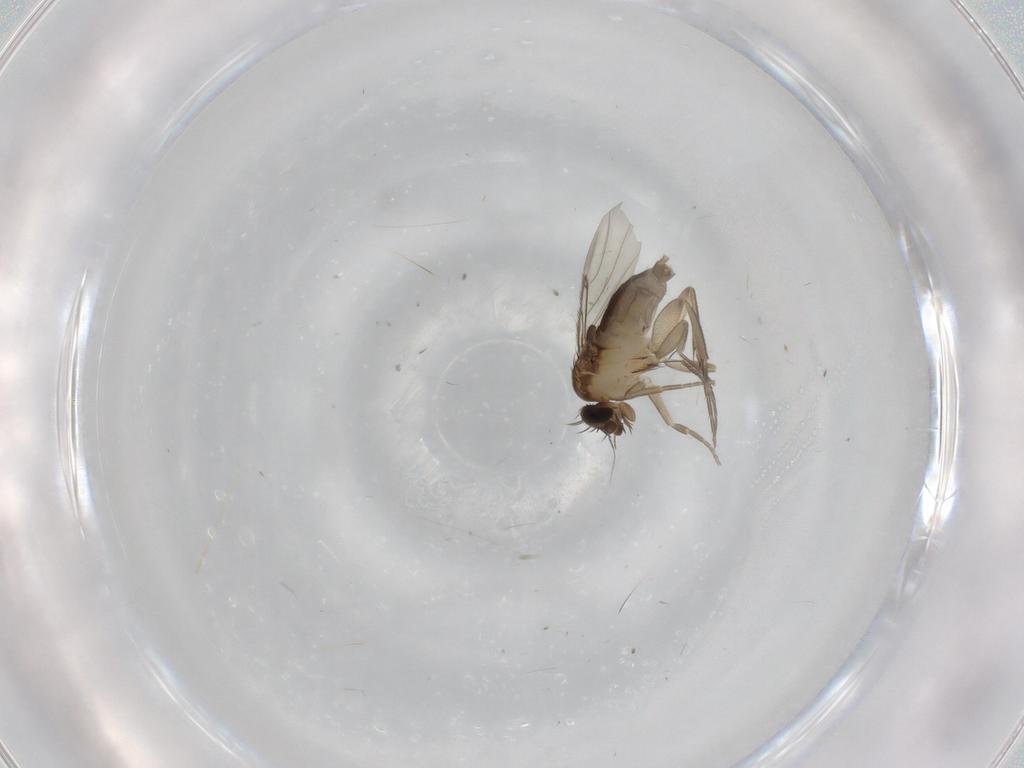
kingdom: Animalia
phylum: Arthropoda
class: Insecta
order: Diptera
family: Phoridae
